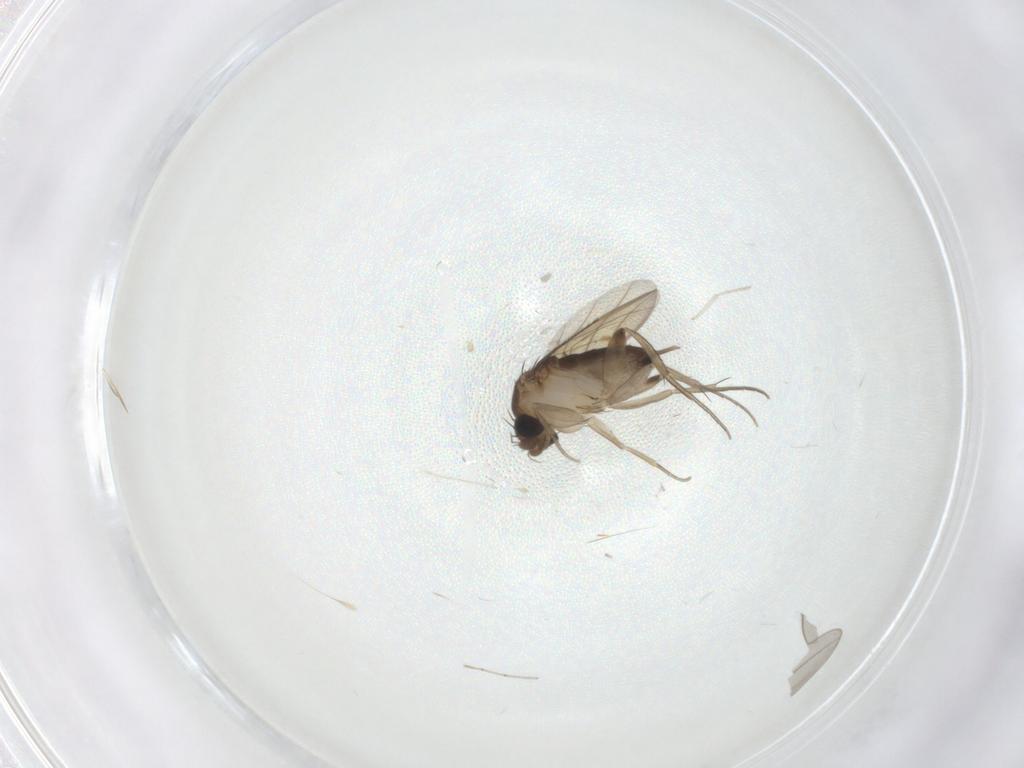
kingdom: Animalia
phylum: Arthropoda
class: Insecta
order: Diptera
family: Phoridae
